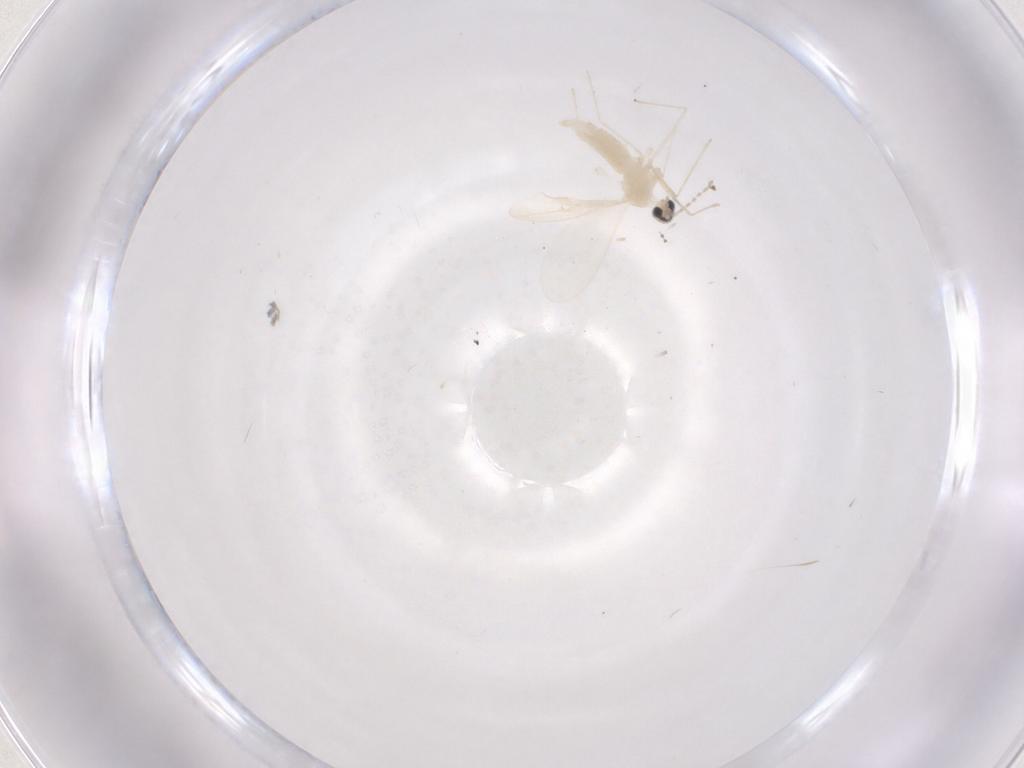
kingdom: Animalia
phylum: Arthropoda
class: Insecta
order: Diptera
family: Cecidomyiidae
